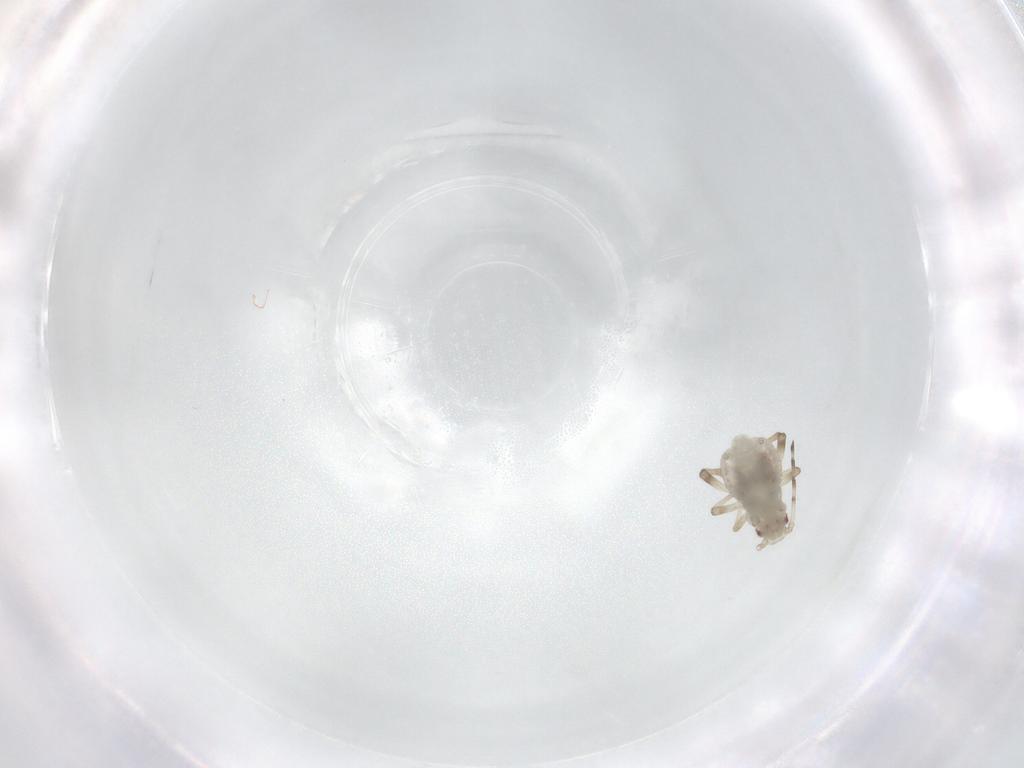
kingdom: Animalia
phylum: Arthropoda
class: Insecta
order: Hemiptera
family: Aphididae
